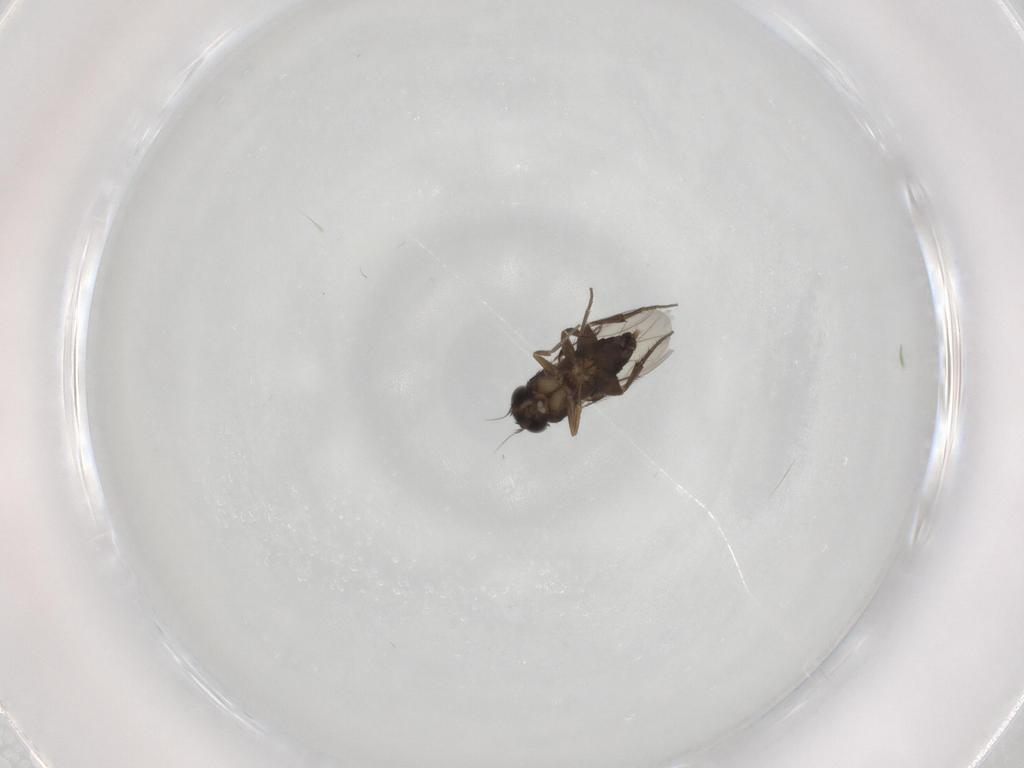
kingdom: Animalia
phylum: Arthropoda
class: Insecta
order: Diptera
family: Phoridae
